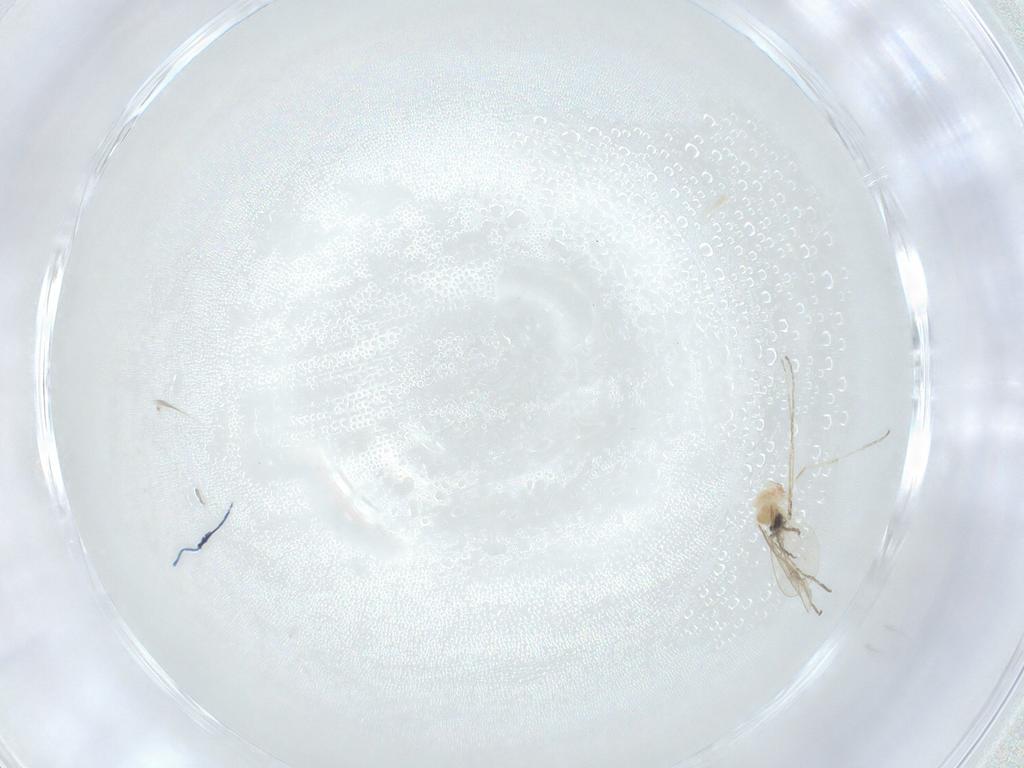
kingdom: Animalia
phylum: Arthropoda
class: Insecta
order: Diptera
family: Cecidomyiidae
